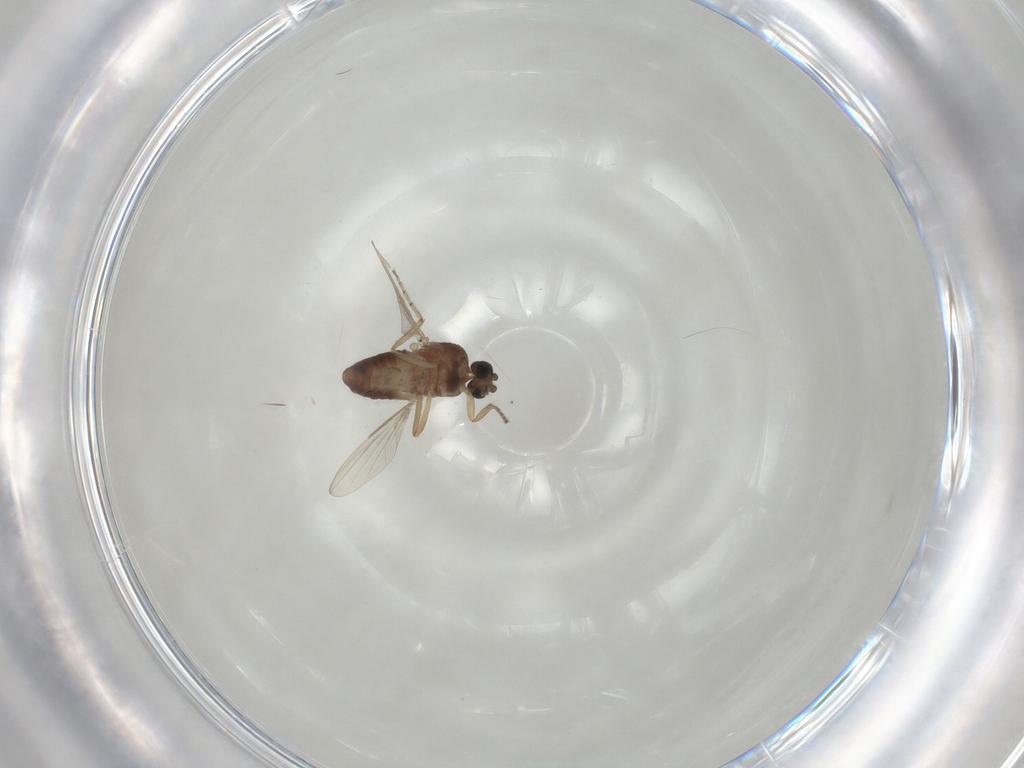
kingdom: Animalia
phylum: Arthropoda
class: Insecta
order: Diptera
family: Ceratopogonidae
